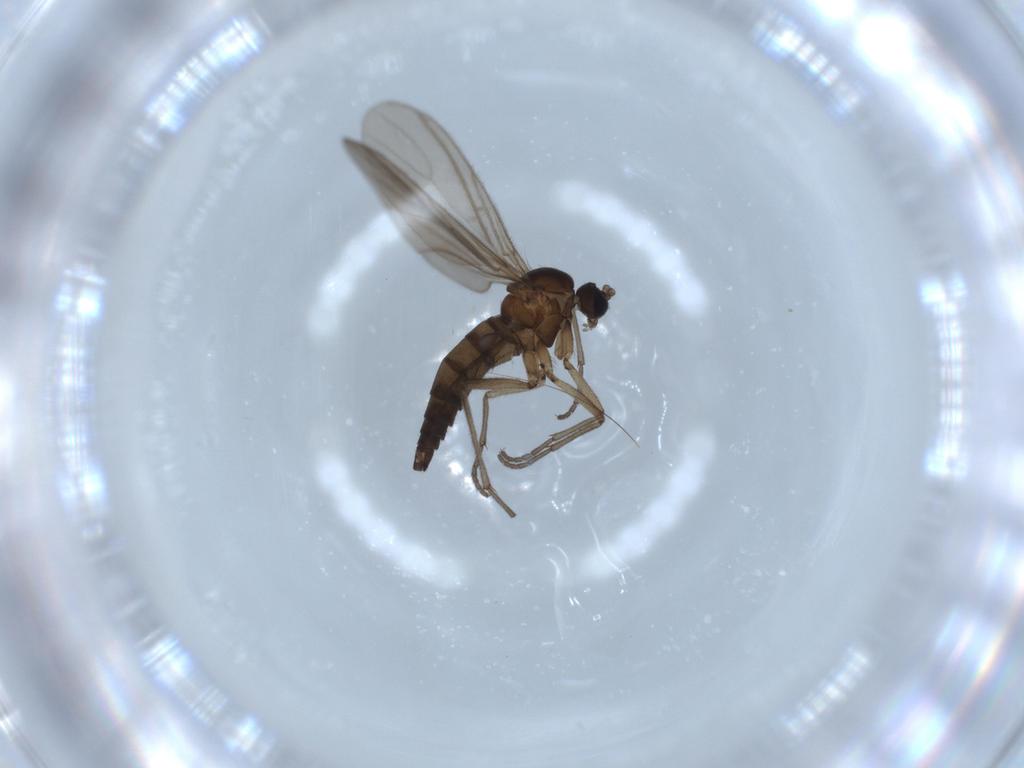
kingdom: Animalia
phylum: Arthropoda
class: Insecta
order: Diptera
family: Sciaridae
